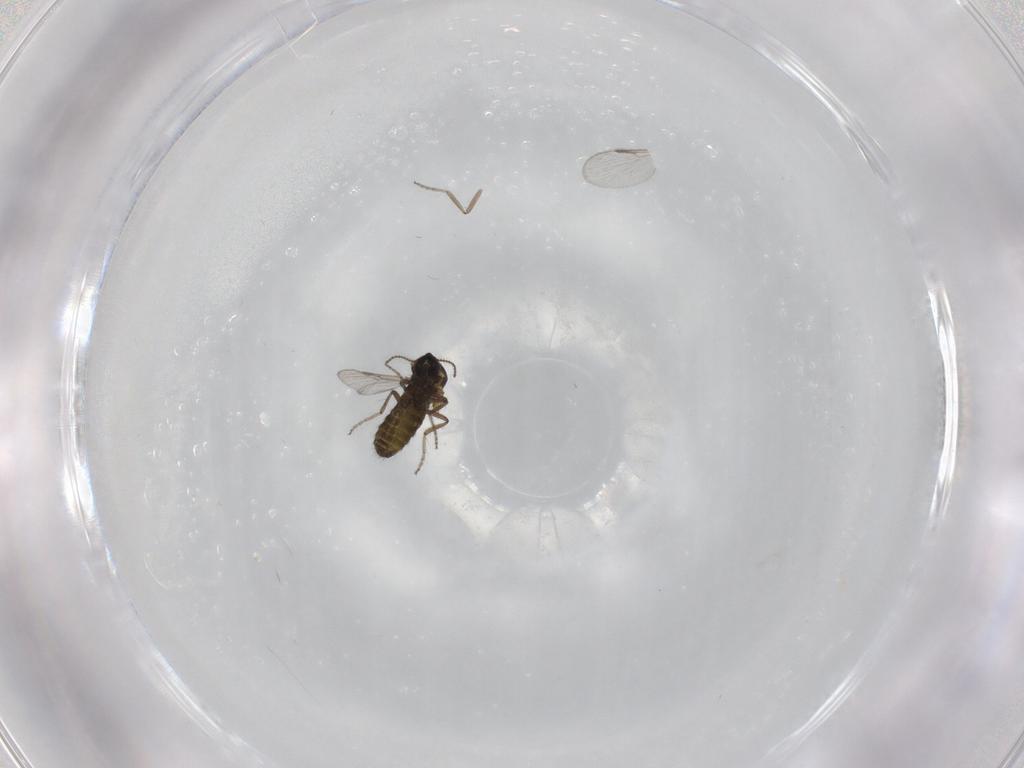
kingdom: Animalia
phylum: Arthropoda
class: Insecta
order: Diptera
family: Ceratopogonidae
